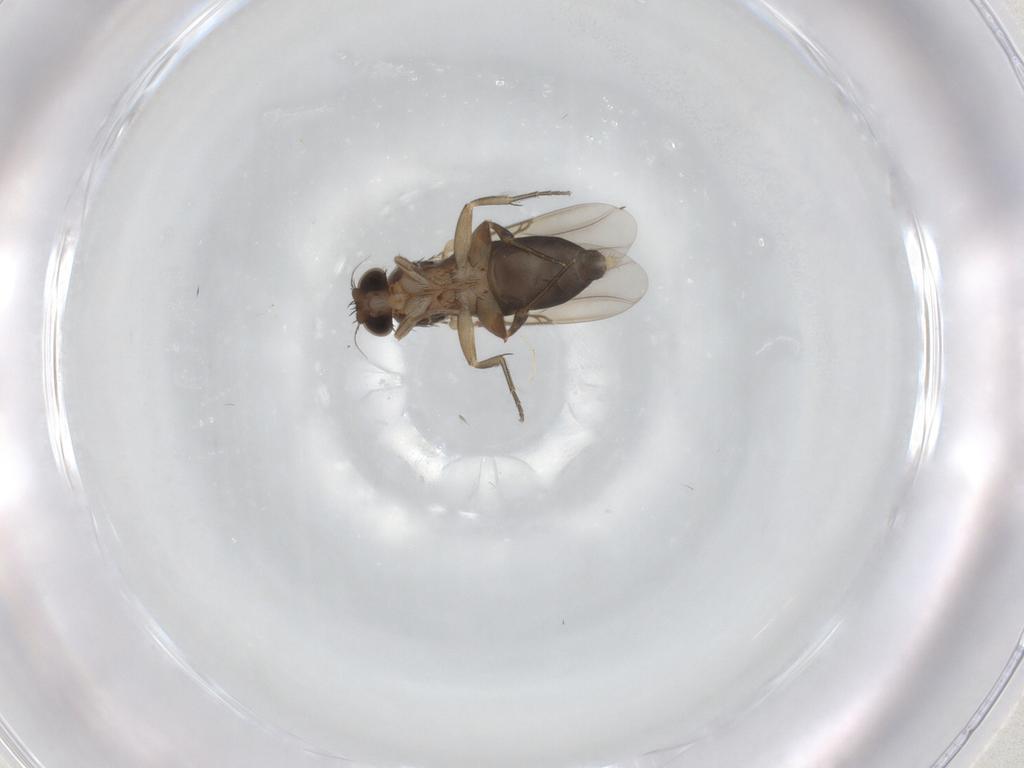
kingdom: Animalia
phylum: Arthropoda
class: Insecta
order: Diptera
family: Phoridae
